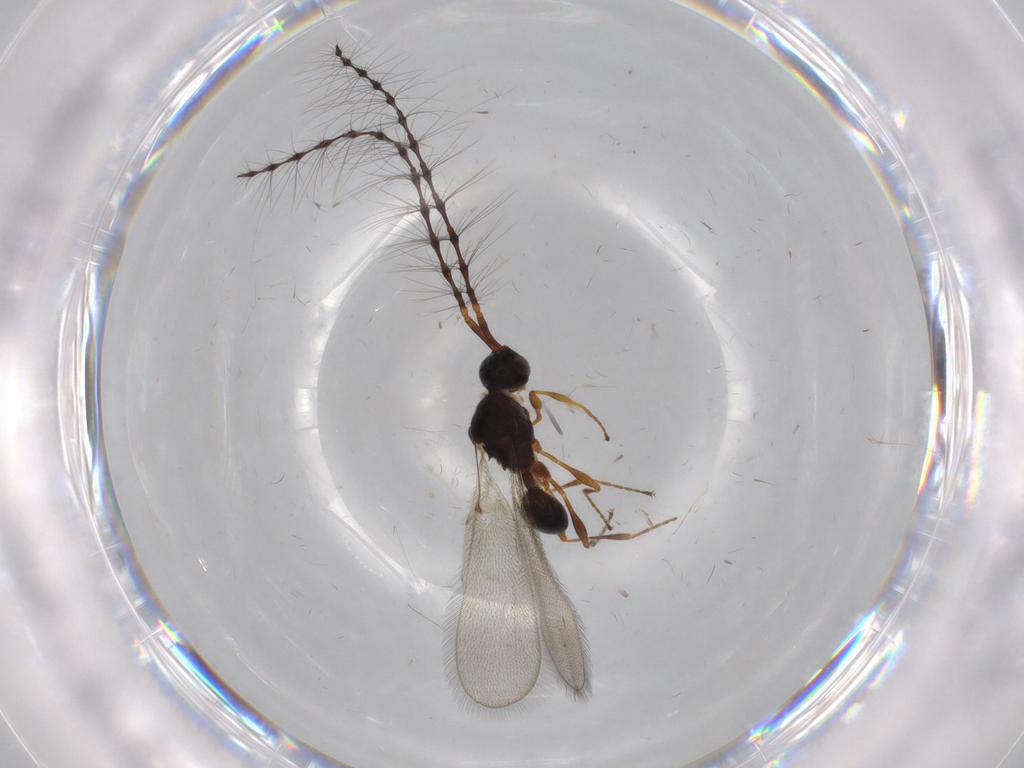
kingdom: Animalia
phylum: Arthropoda
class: Insecta
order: Hymenoptera
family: Diapriidae
